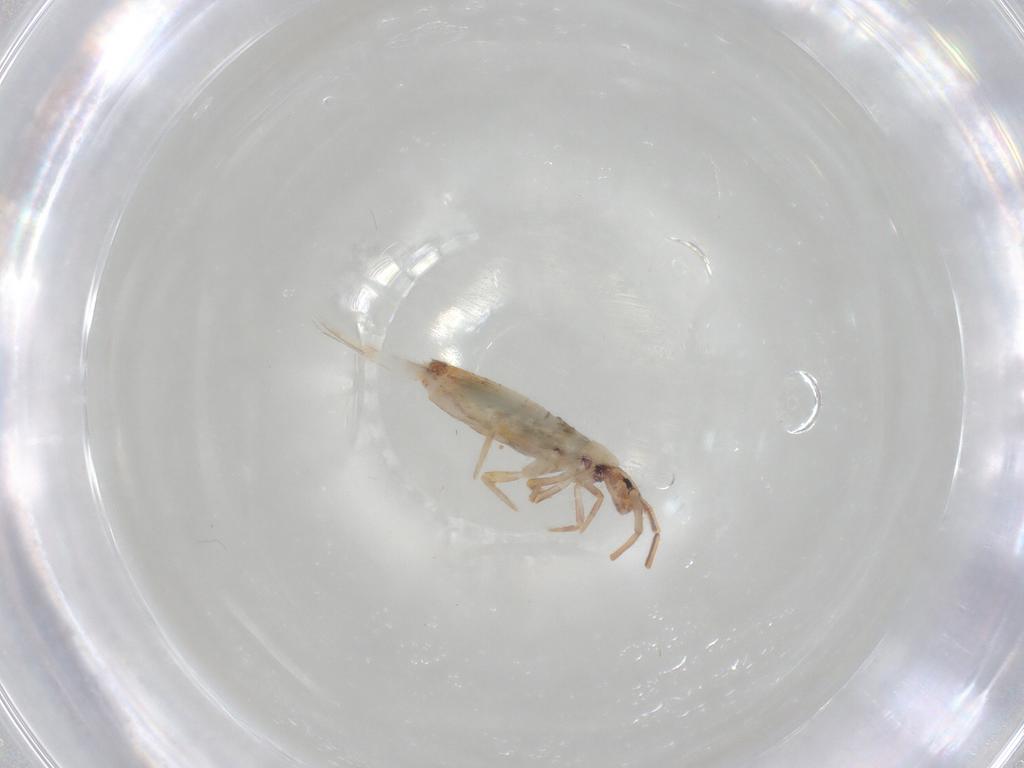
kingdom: Animalia
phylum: Arthropoda
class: Collembola
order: Entomobryomorpha
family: Entomobryidae
